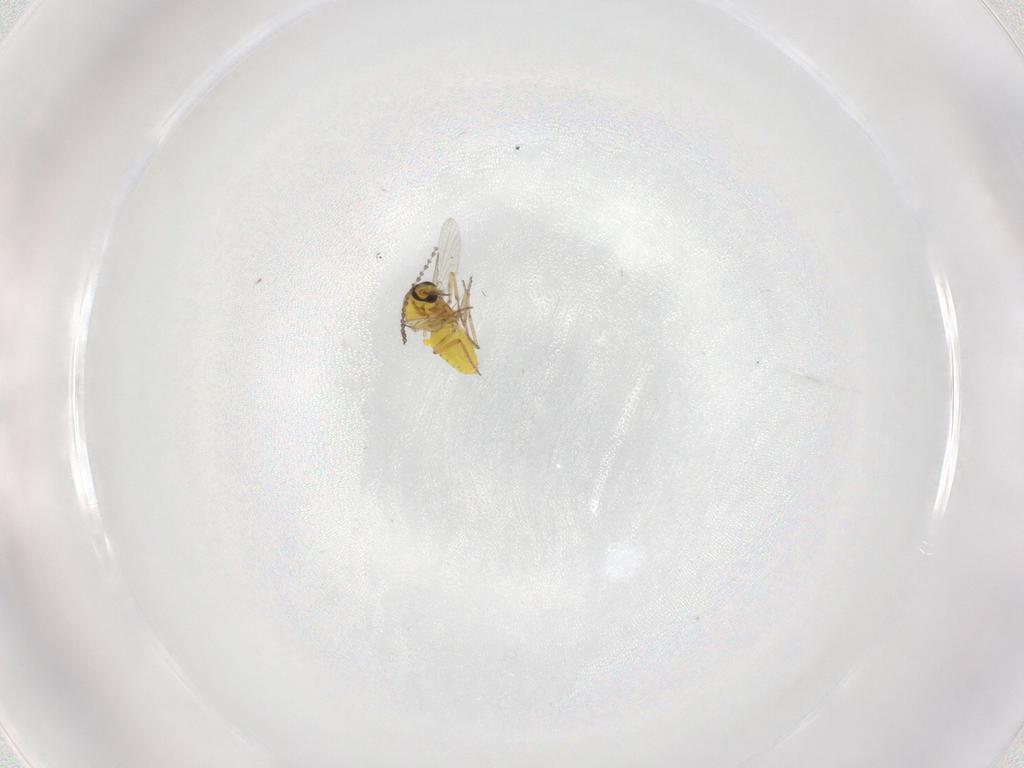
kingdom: Animalia
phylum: Arthropoda
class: Insecta
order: Diptera
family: Ceratopogonidae
